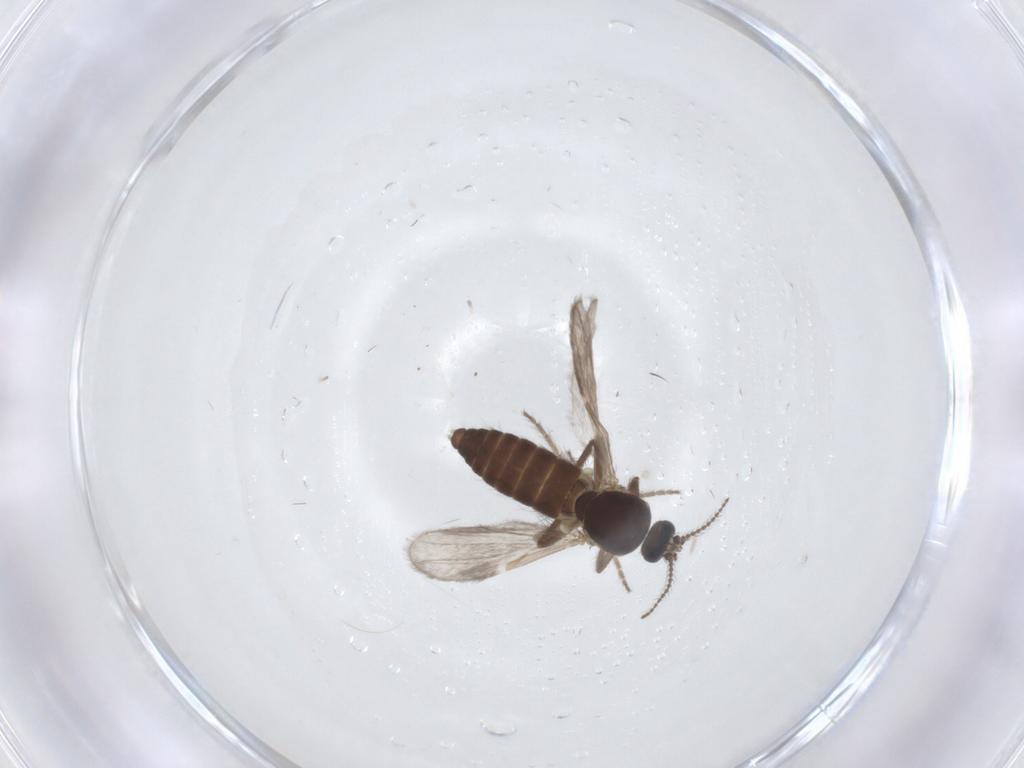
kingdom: Animalia
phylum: Arthropoda
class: Insecta
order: Diptera
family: Ceratopogonidae
